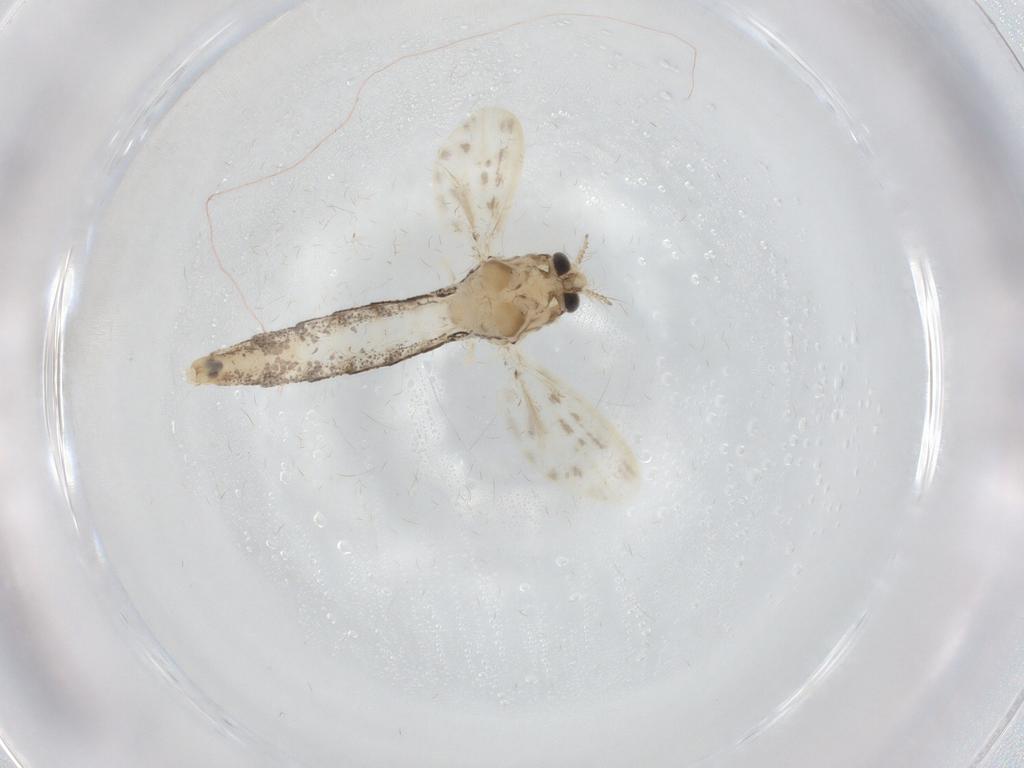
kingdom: Animalia
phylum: Arthropoda
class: Insecta
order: Diptera
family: Chaoboridae
